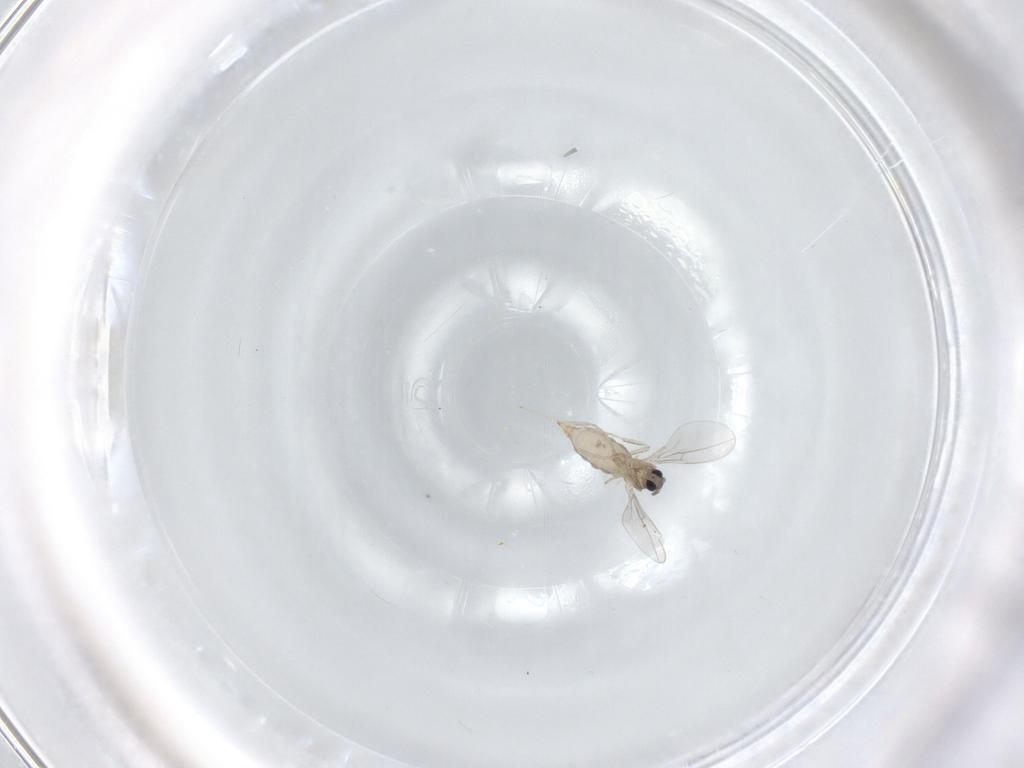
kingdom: Animalia
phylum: Arthropoda
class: Insecta
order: Diptera
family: Cecidomyiidae
